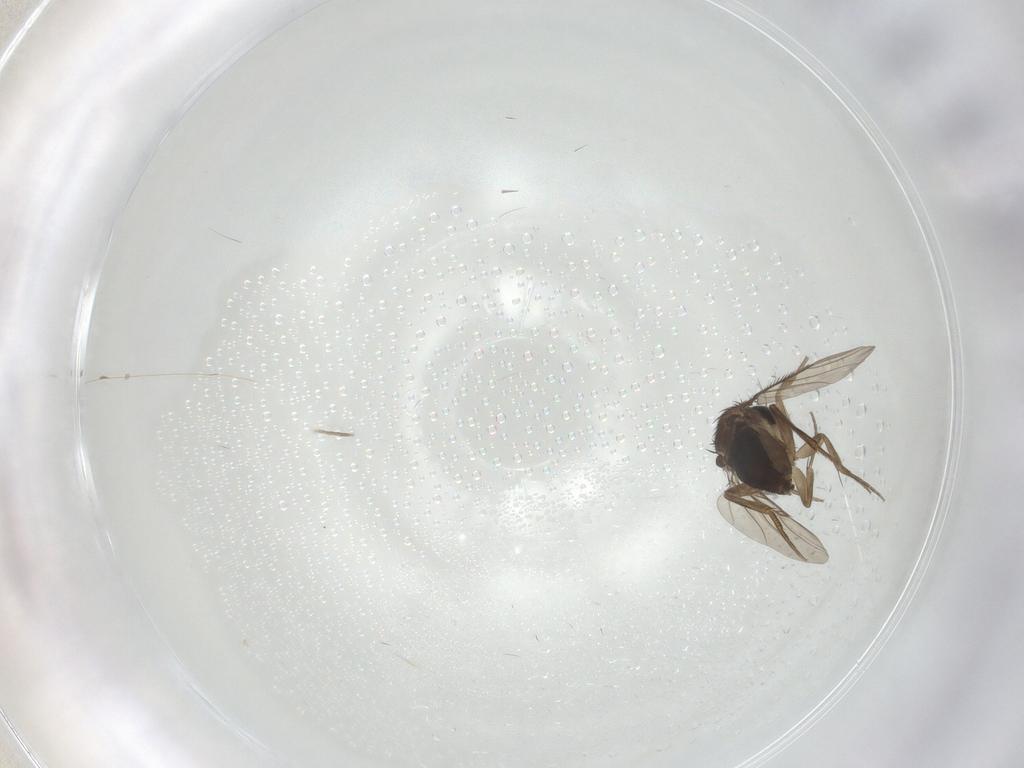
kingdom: Animalia
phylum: Arthropoda
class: Insecta
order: Diptera
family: Phoridae
